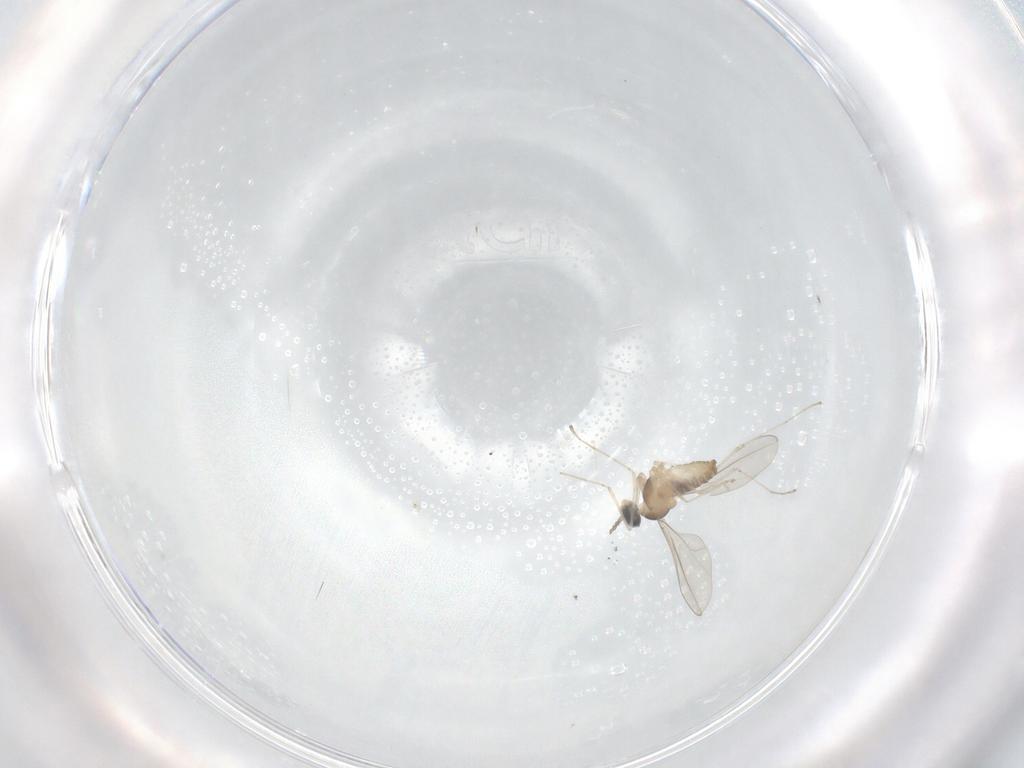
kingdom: Animalia
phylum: Arthropoda
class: Insecta
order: Diptera
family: Cecidomyiidae
